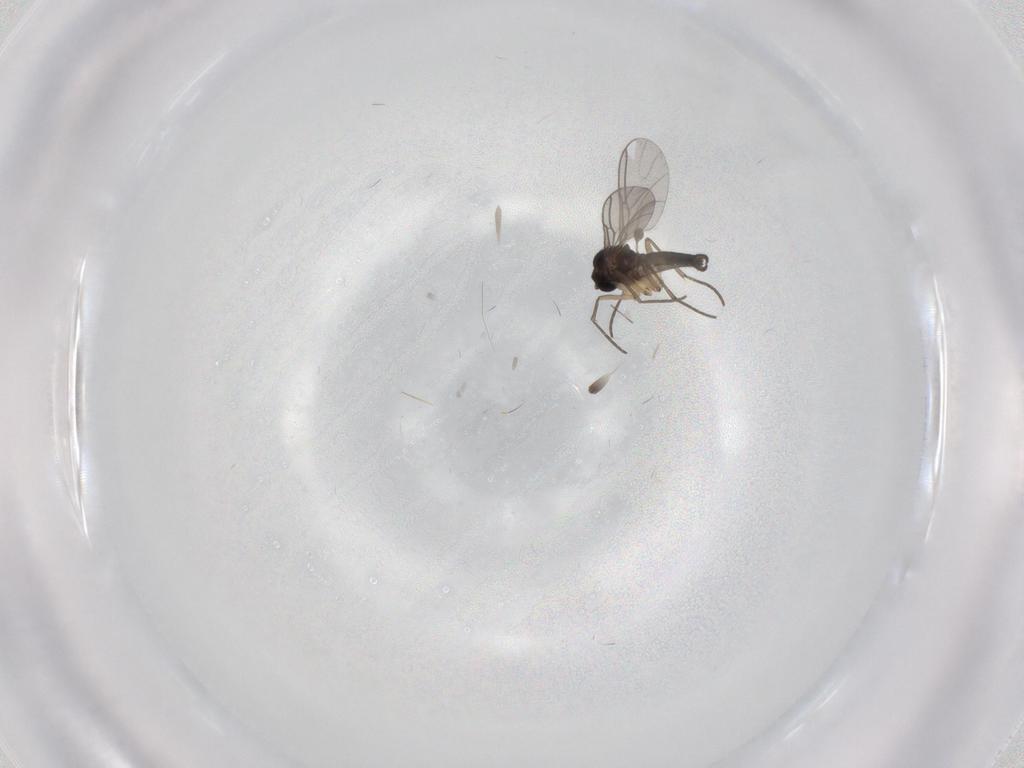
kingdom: Animalia
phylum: Arthropoda
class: Insecta
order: Diptera
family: Sciaridae
